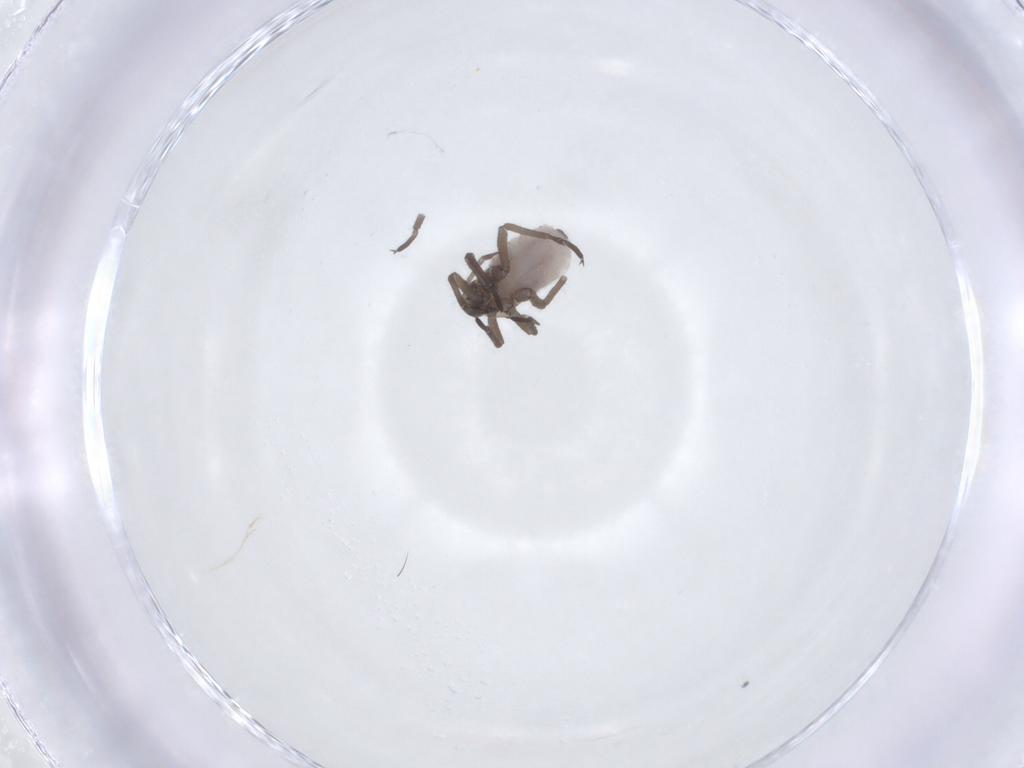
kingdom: Animalia
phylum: Arthropoda
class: Insecta
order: Hemiptera
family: Aphididae
